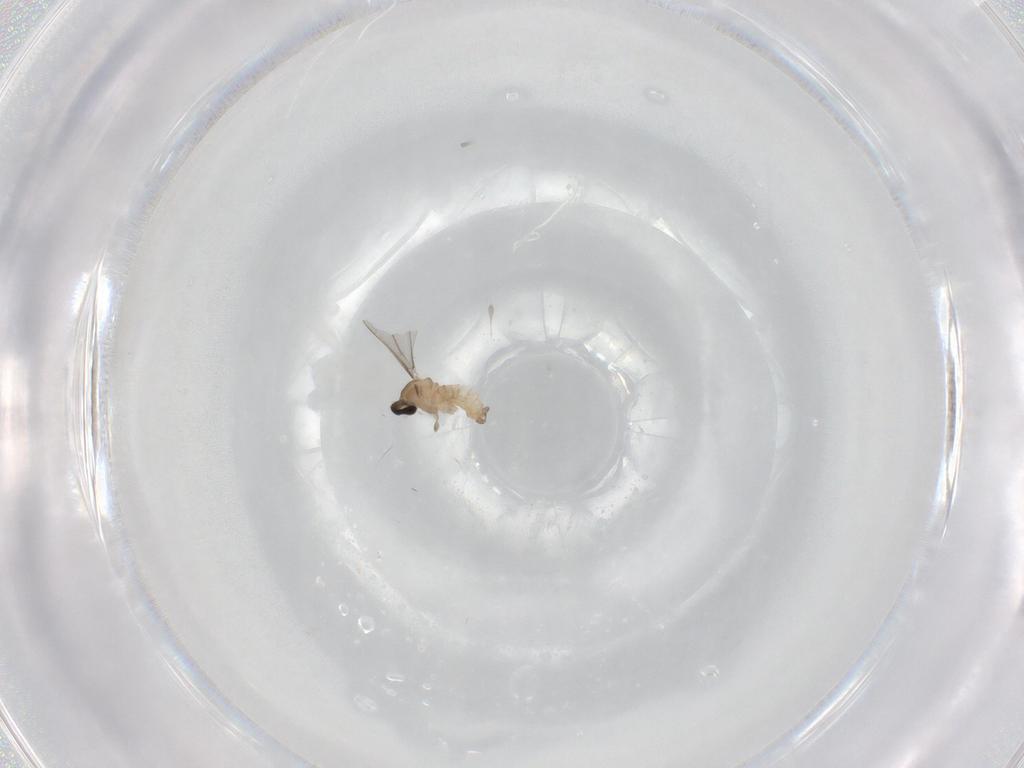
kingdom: Animalia
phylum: Arthropoda
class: Insecta
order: Diptera
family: Cecidomyiidae
